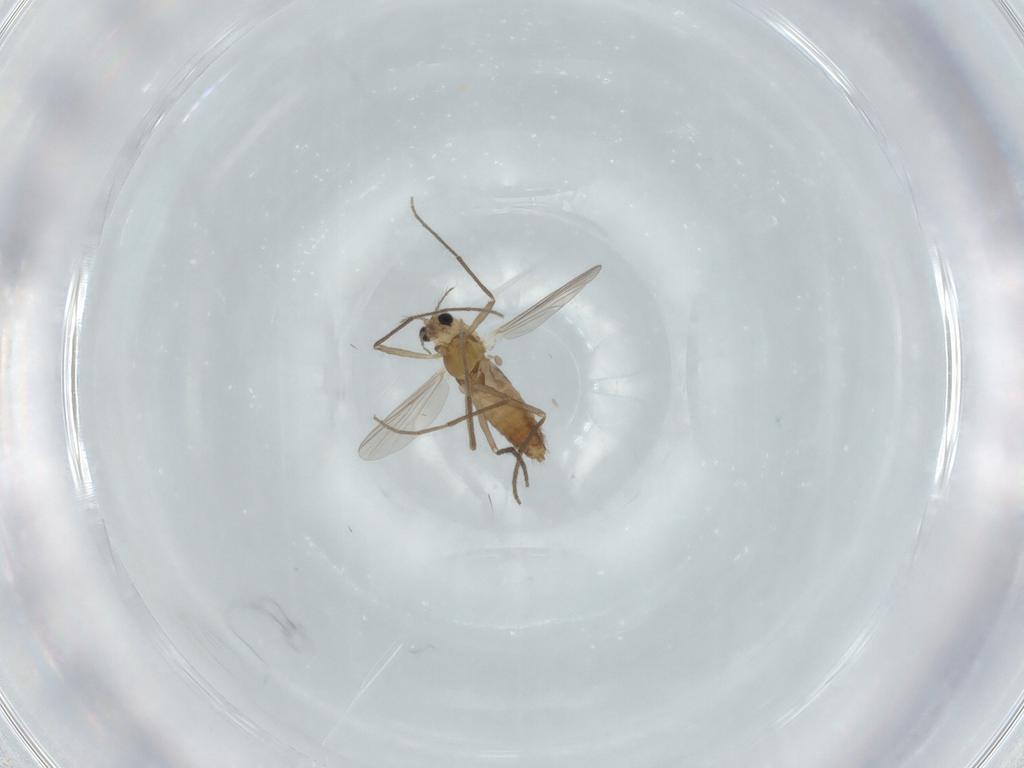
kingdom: Animalia
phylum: Arthropoda
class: Insecta
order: Diptera
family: Chironomidae
